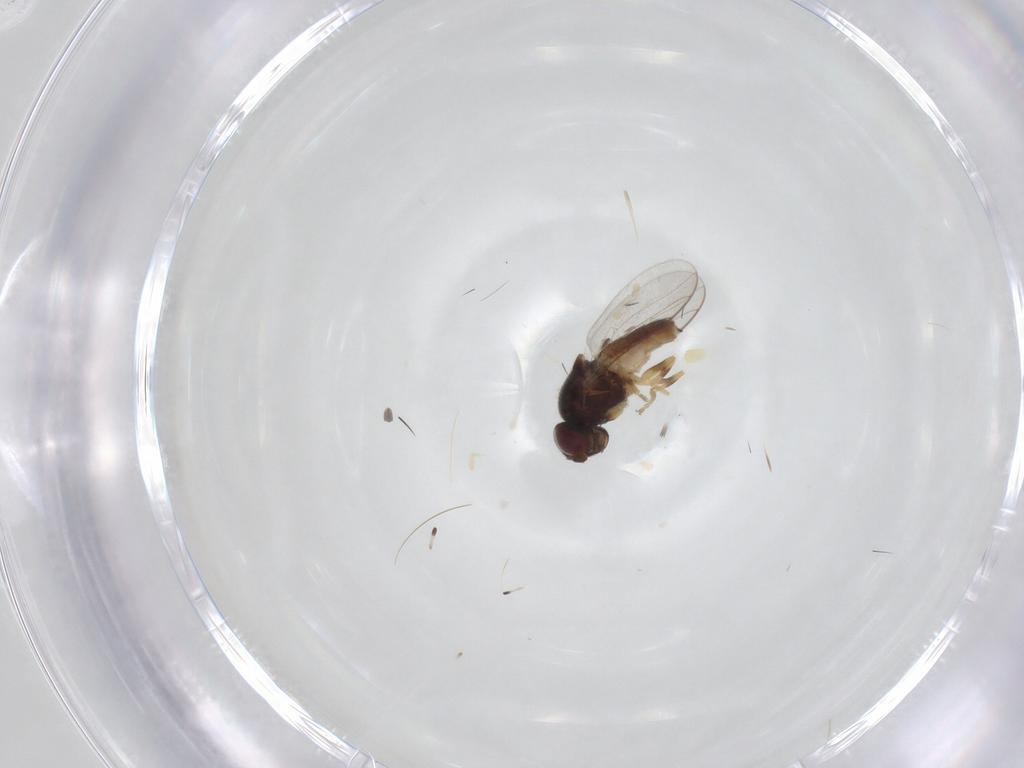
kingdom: Animalia
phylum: Arthropoda
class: Insecta
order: Diptera
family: Chloropidae
